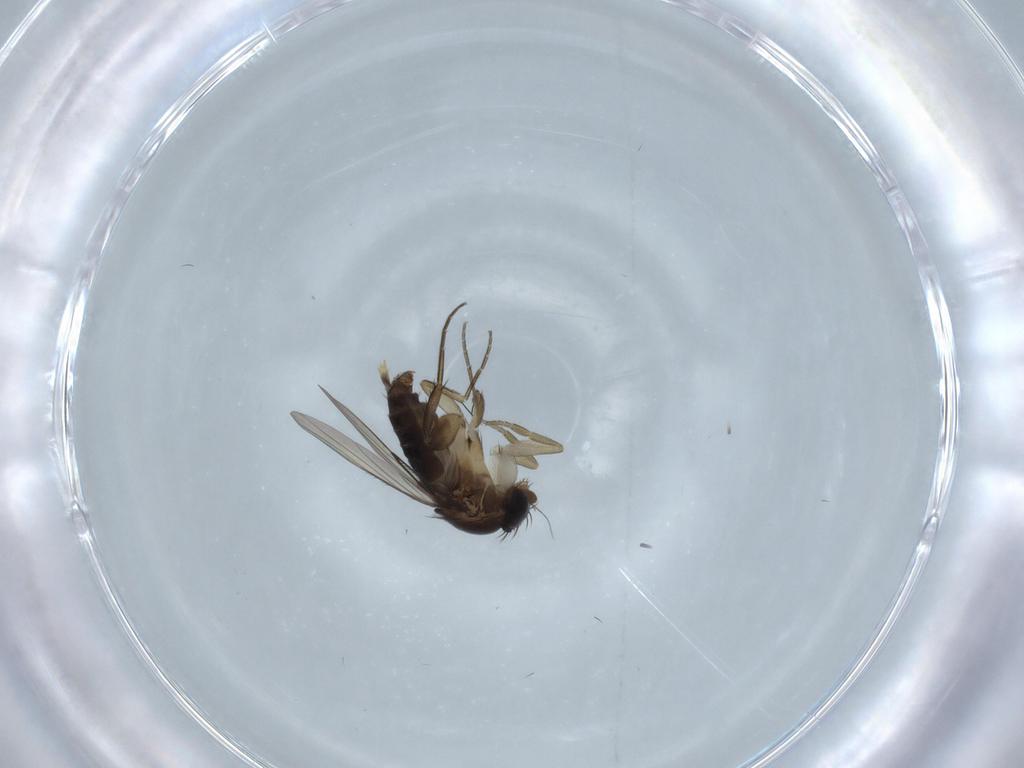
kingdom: Animalia
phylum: Arthropoda
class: Insecta
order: Diptera
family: Phoridae
